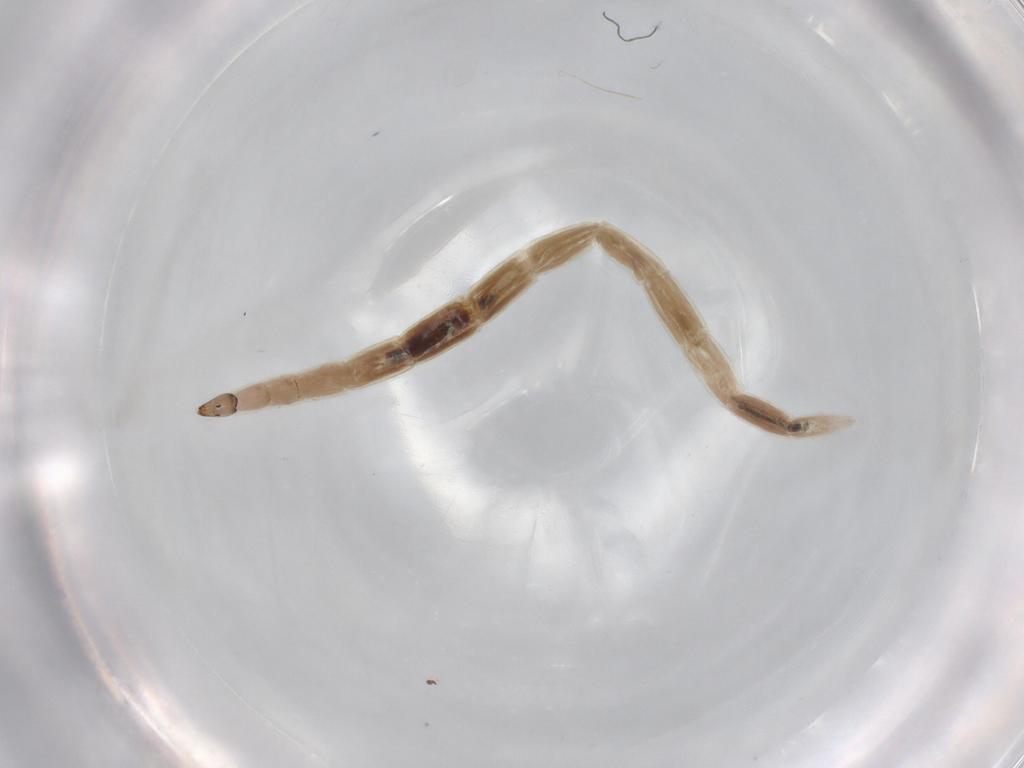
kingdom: Animalia
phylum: Arthropoda
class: Insecta
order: Diptera
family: Ceratopogonidae
